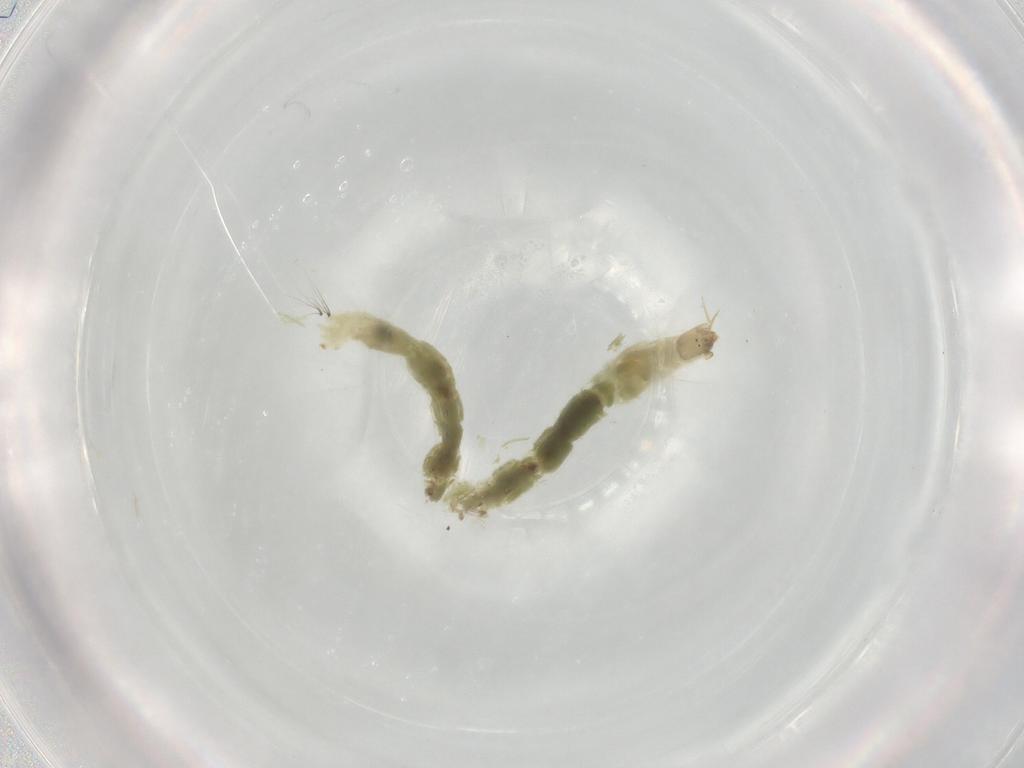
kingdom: Animalia
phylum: Arthropoda
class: Insecta
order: Diptera
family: Chironomidae
